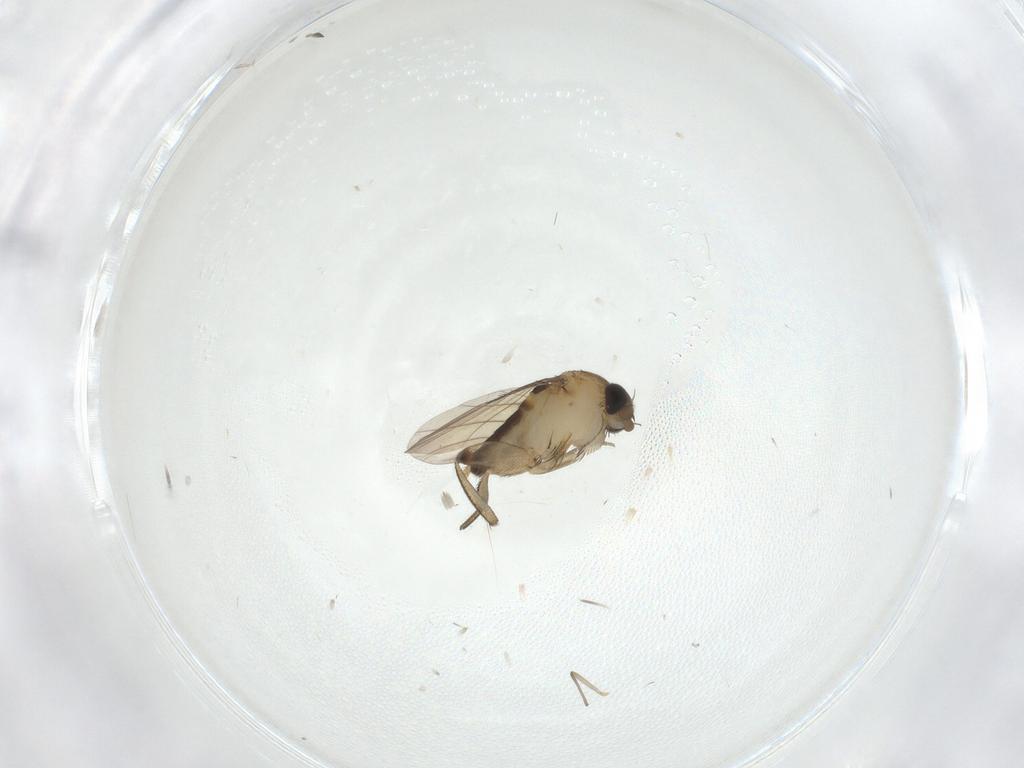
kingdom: Animalia
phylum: Arthropoda
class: Insecta
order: Diptera
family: Phoridae
